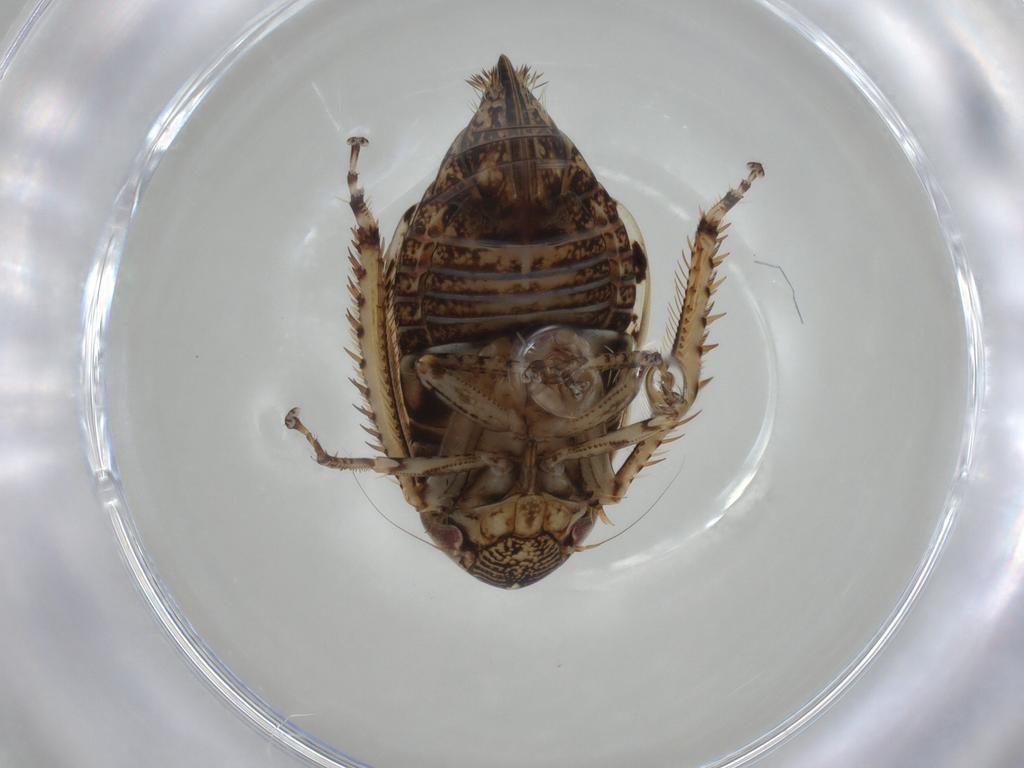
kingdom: Animalia
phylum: Arthropoda
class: Insecta
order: Hemiptera
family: Cicadellidae
